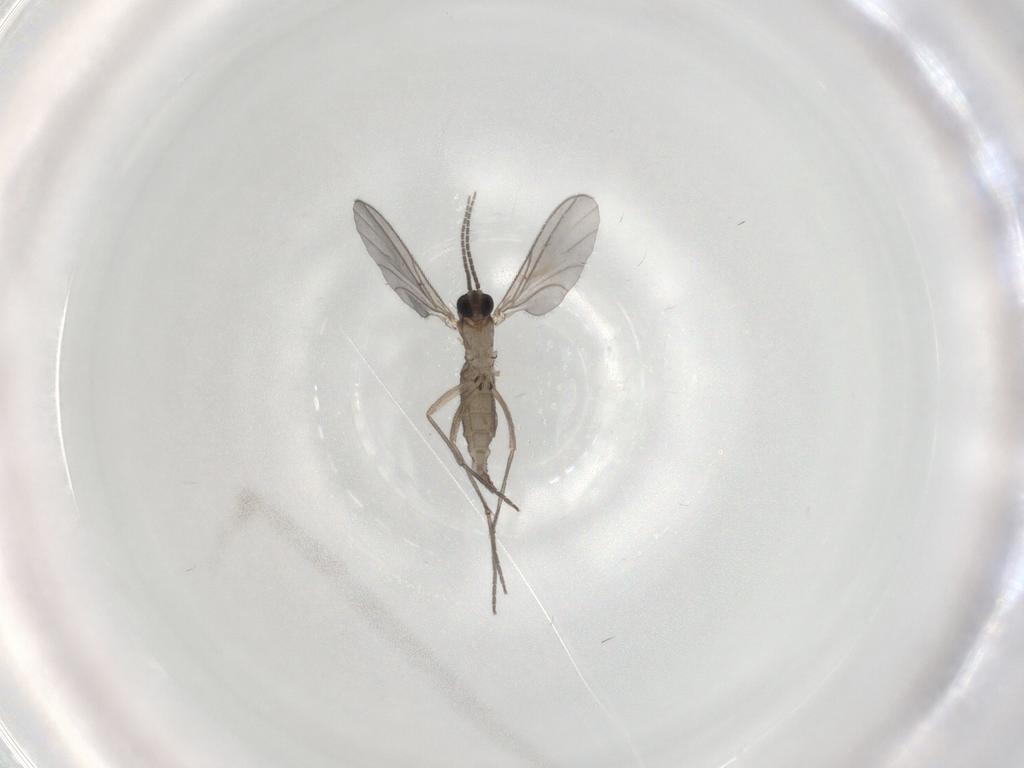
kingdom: Animalia
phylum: Arthropoda
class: Insecta
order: Diptera
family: Sciaridae
